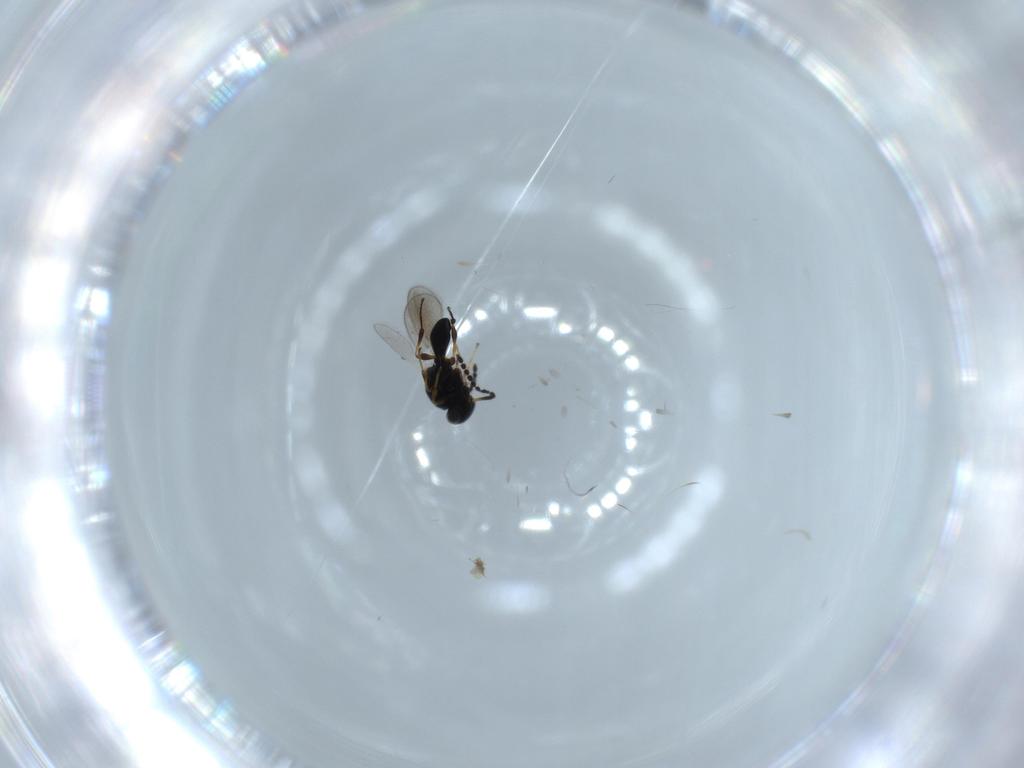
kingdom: Animalia
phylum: Arthropoda
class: Insecta
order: Hymenoptera
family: Platygastridae
